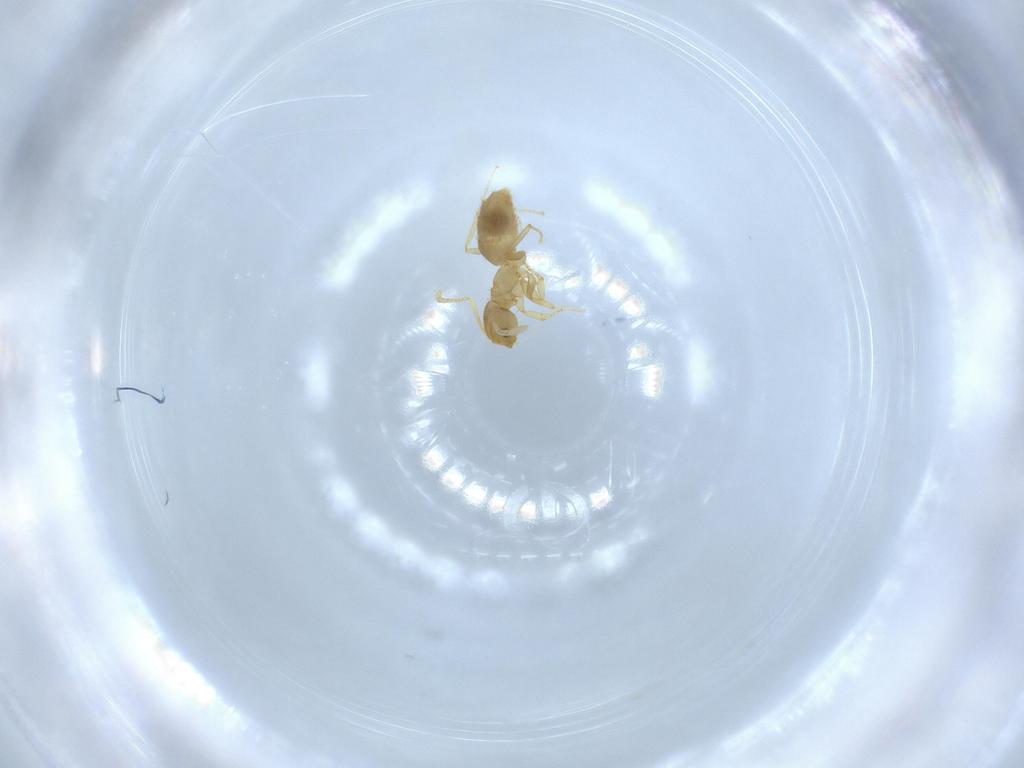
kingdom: Animalia
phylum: Arthropoda
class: Insecta
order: Hymenoptera
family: Formicidae
